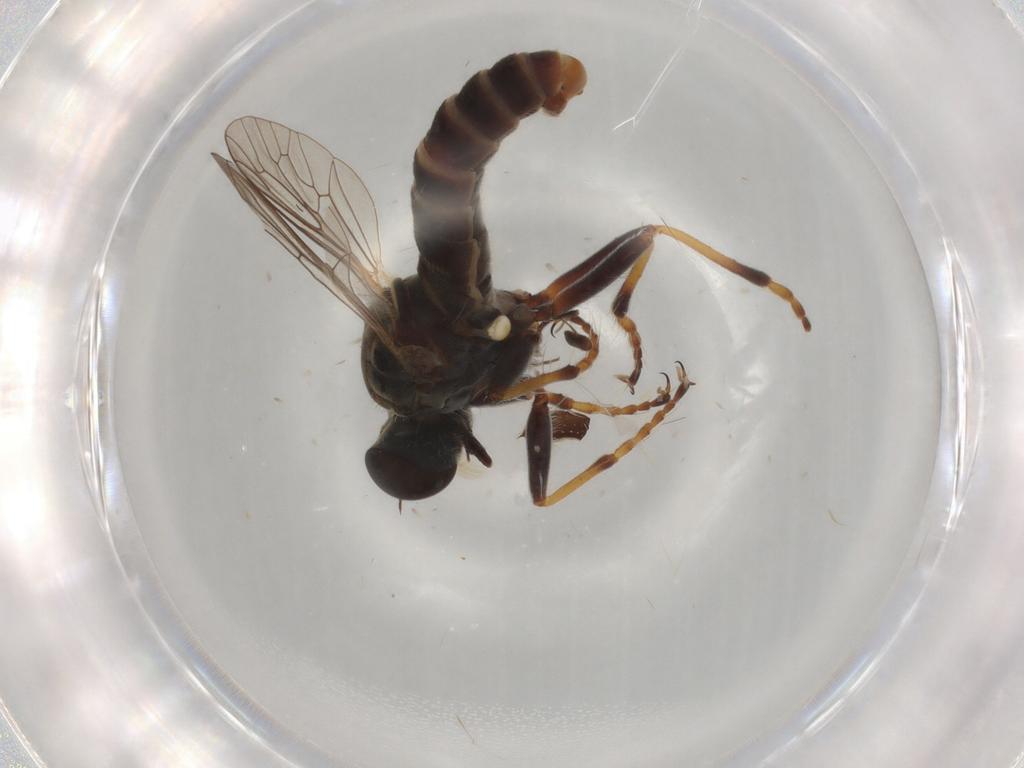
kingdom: Animalia
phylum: Arthropoda
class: Insecta
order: Diptera
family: Asilidae
